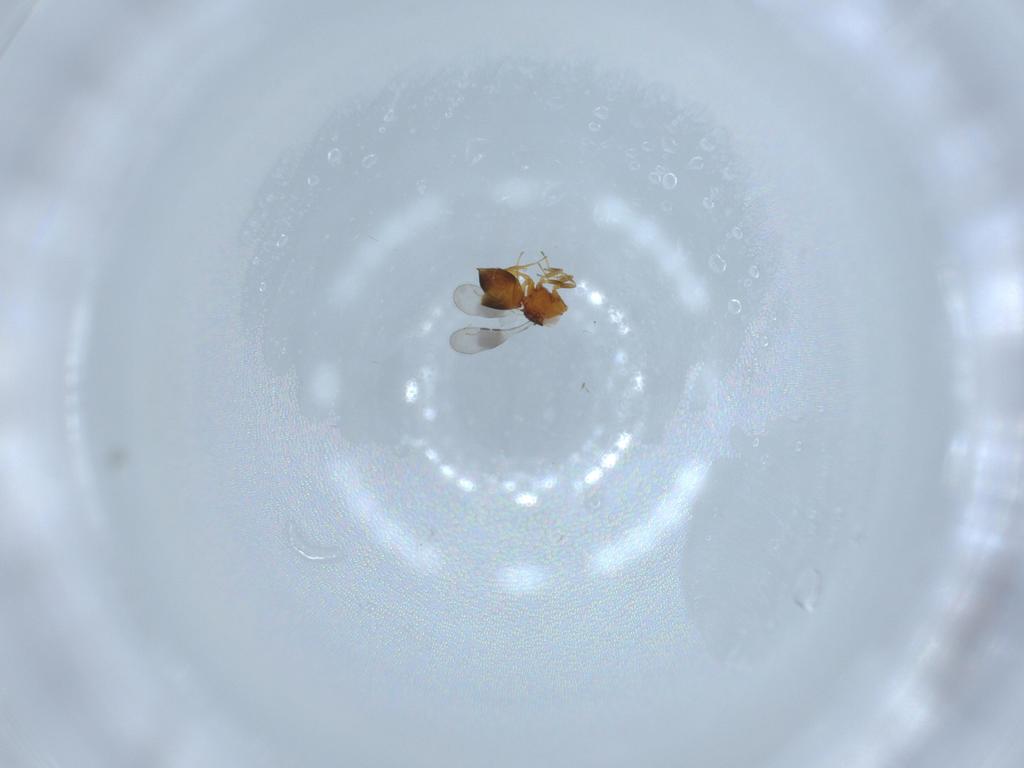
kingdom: Animalia
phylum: Arthropoda
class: Insecta
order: Hymenoptera
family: Ceraphronidae
